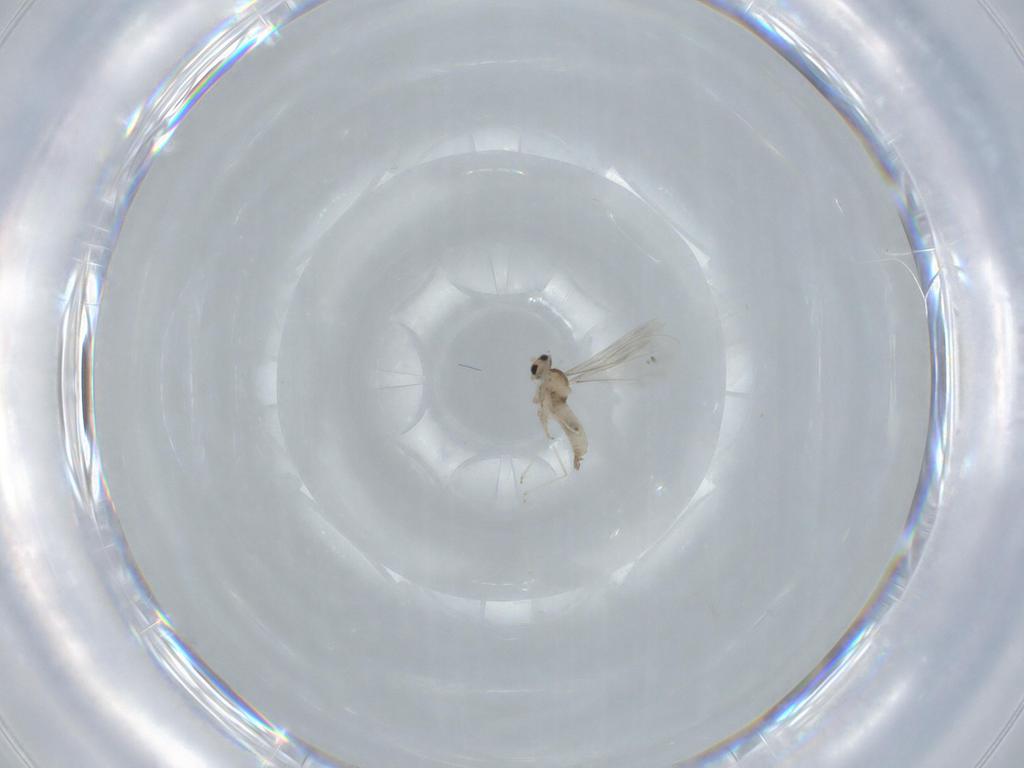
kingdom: Animalia
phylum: Arthropoda
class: Insecta
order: Diptera
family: Cecidomyiidae
